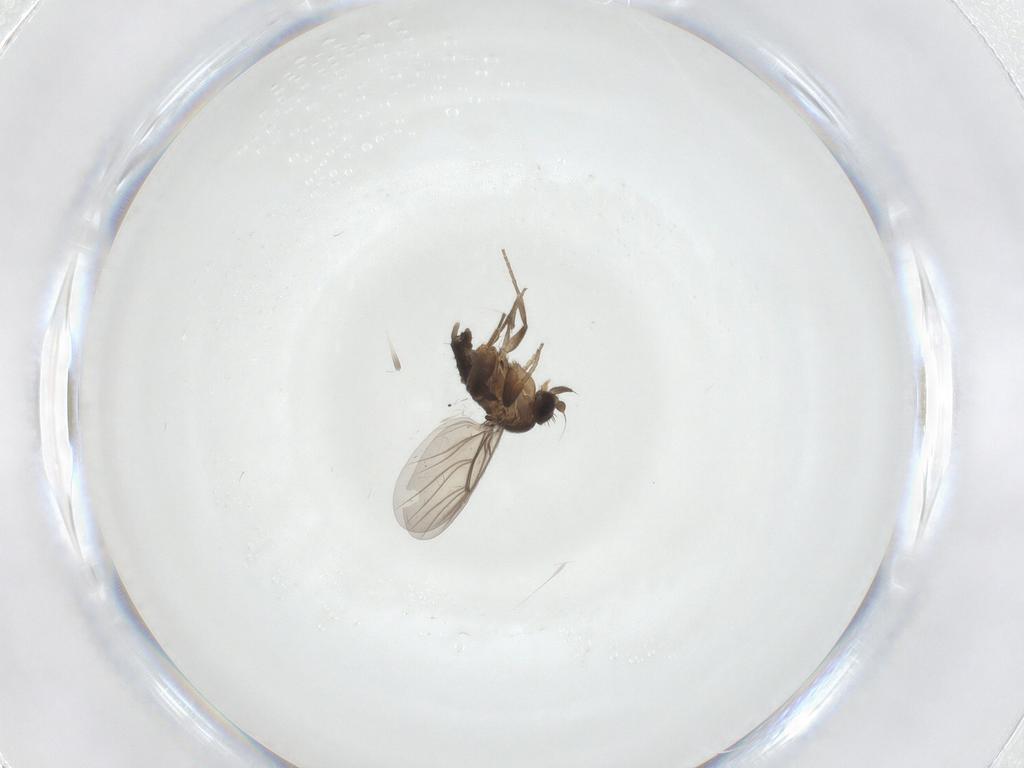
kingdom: Animalia
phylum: Arthropoda
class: Insecta
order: Diptera
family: Phoridae
